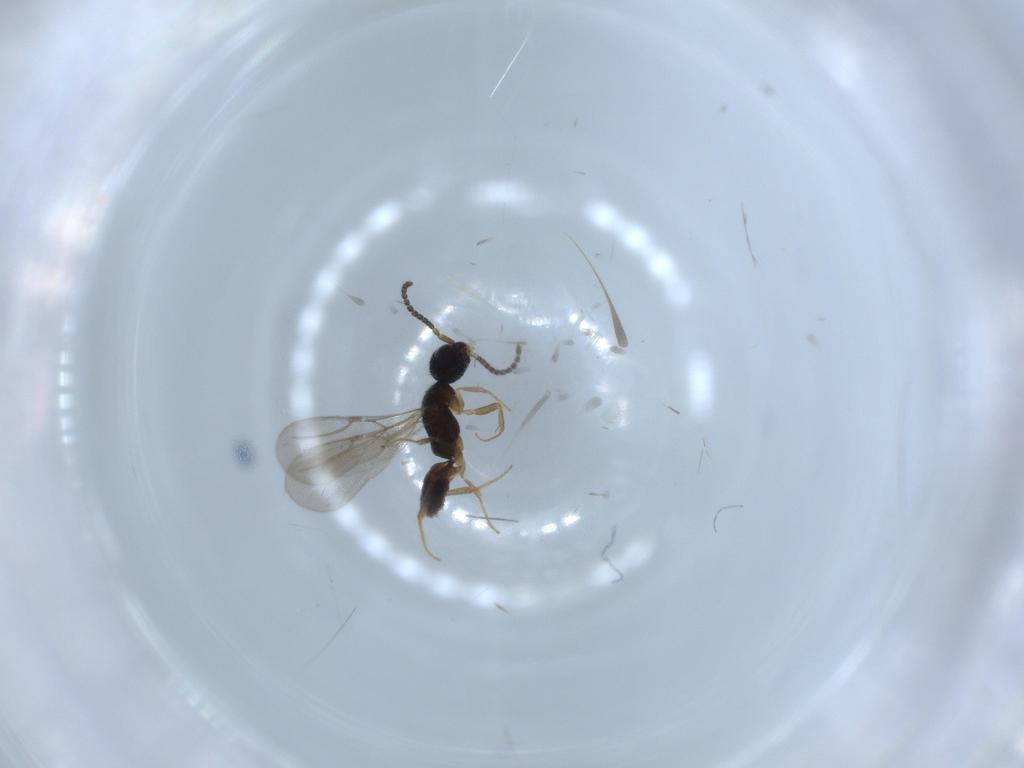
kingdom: Animalia
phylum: Arthropoda
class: Insecta
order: Hymenoptera
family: Bethylidae
